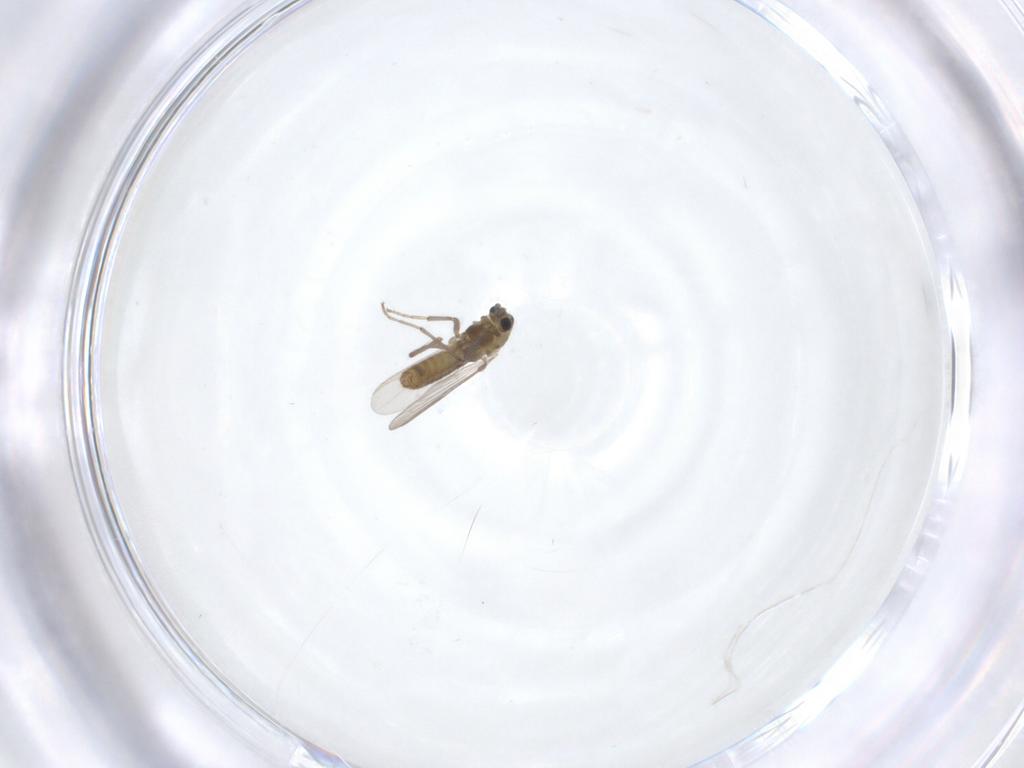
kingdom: Animalia
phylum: Arthropoda
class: Insecta
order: Diptera
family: Chironomidae
